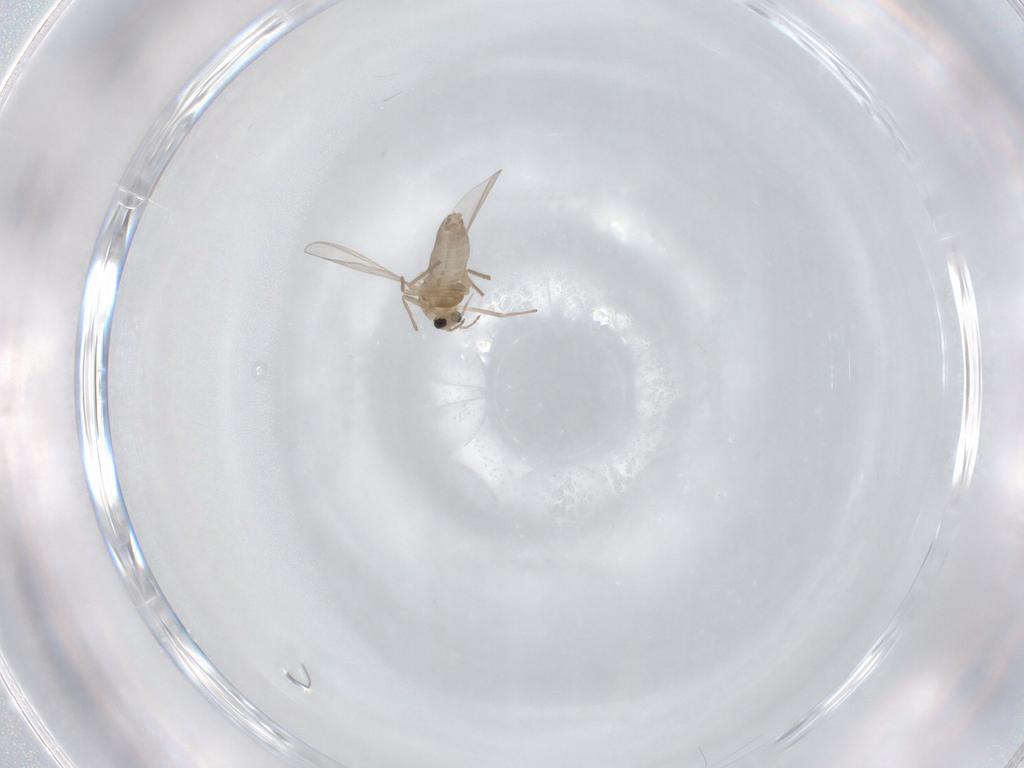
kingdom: Animalia
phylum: Arthropoda
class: Insecta
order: Diptera
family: Chironomidae
